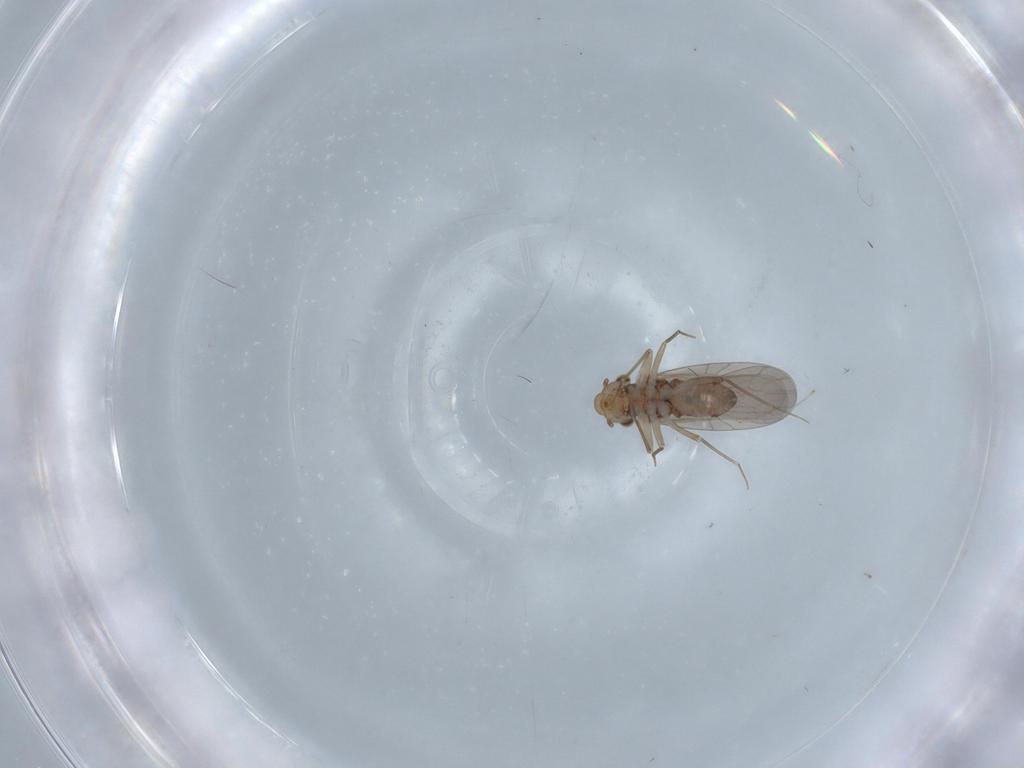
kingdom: Animalia
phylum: Arthropoda
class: Insecta
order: Psocodea
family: Lepidopsocidae
